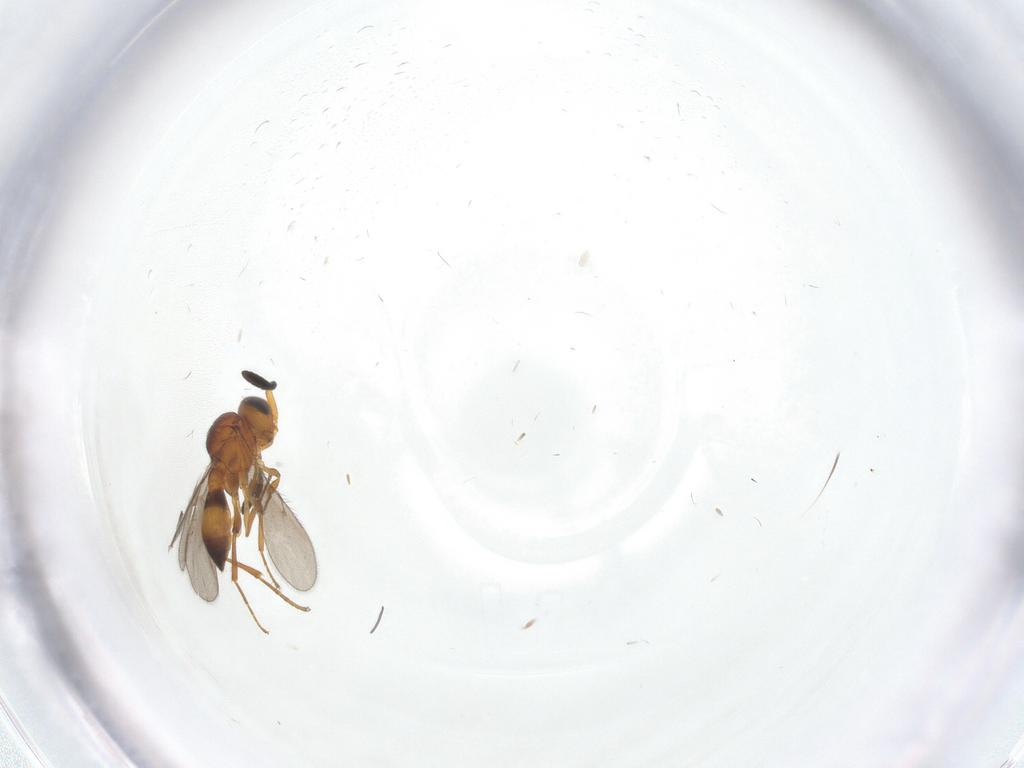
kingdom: Animalia
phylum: Arthropoda
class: Insecta
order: Hymenoptera
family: Scelionidae
